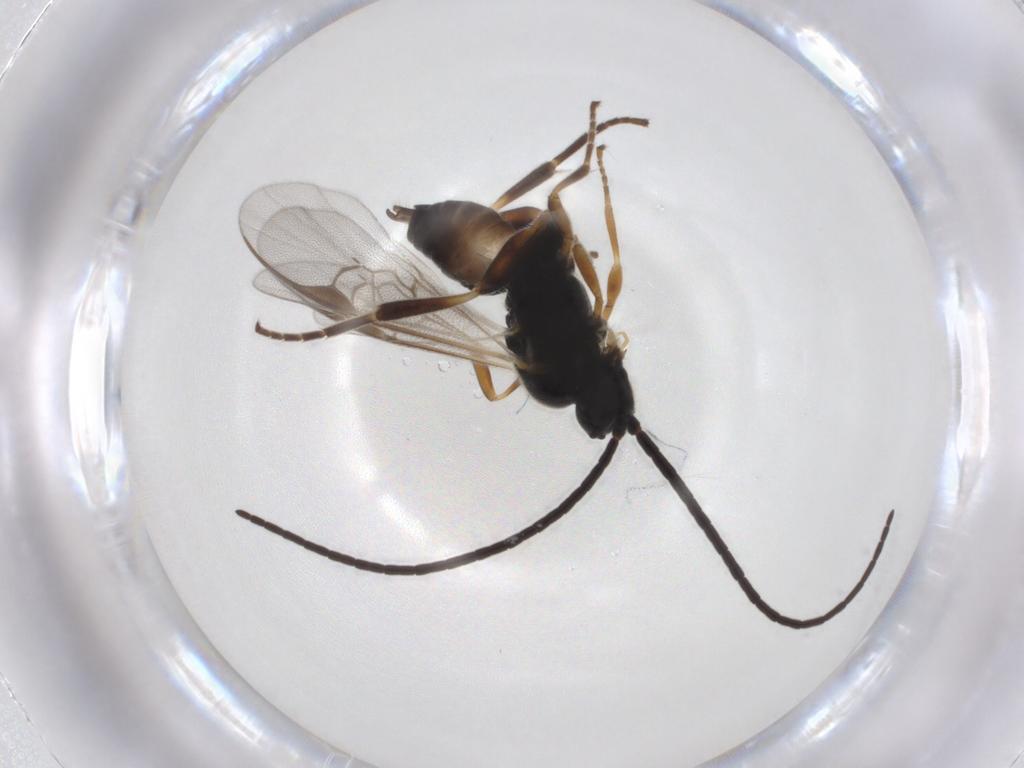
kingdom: Animalia
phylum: Arthropoda
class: Insecta
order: Hymenoptera
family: Braconidae
